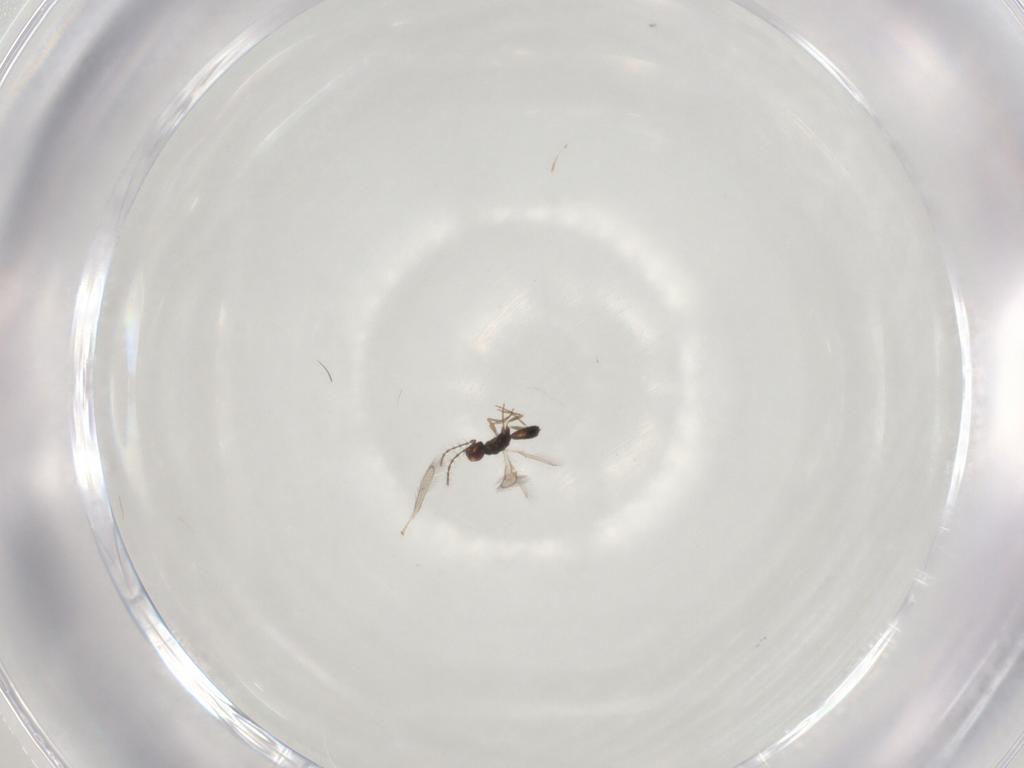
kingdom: Animalia
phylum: Arthropoda
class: Insecta
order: Hymenoptera
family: Pteromalidae
